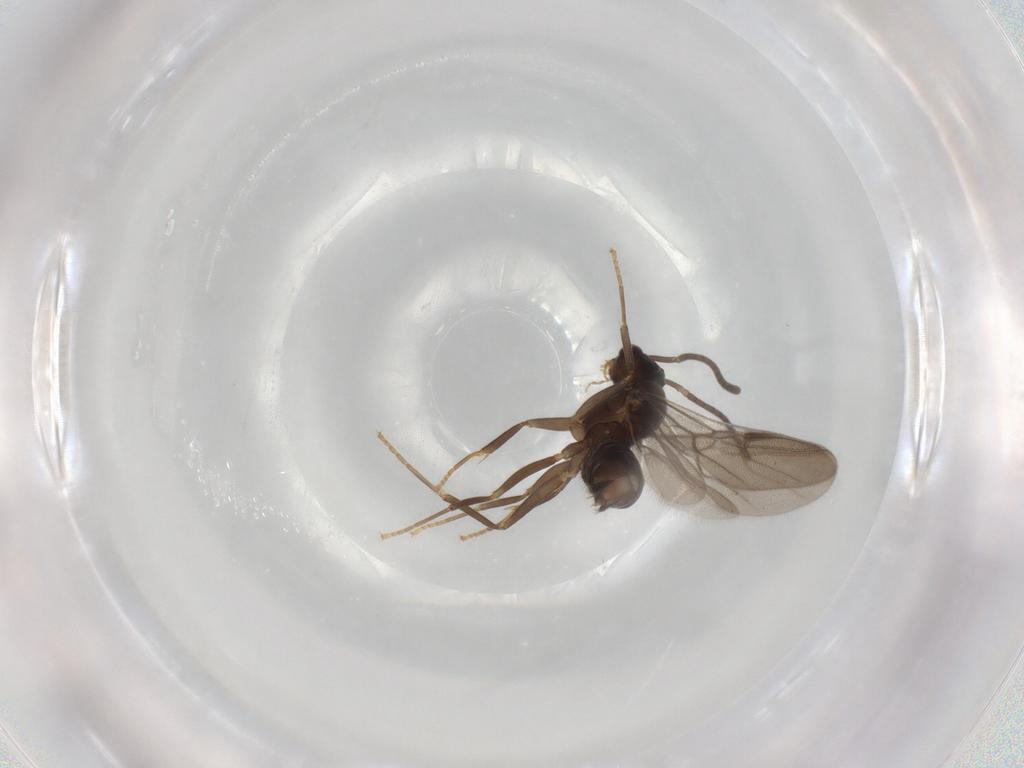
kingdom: Animalia
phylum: Arthropoda
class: Insecta
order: Hymenoptera
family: Formicidae
